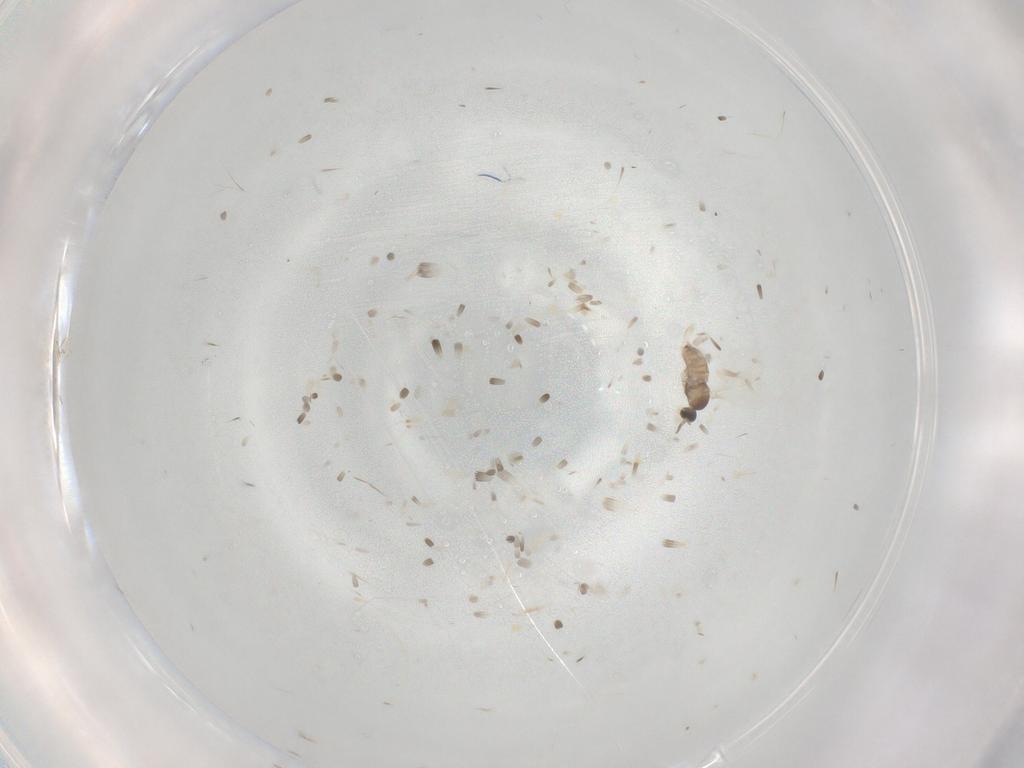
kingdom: Animalia
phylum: Arthropoda
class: Insecta
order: Diptera
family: Cecidomyiidae
